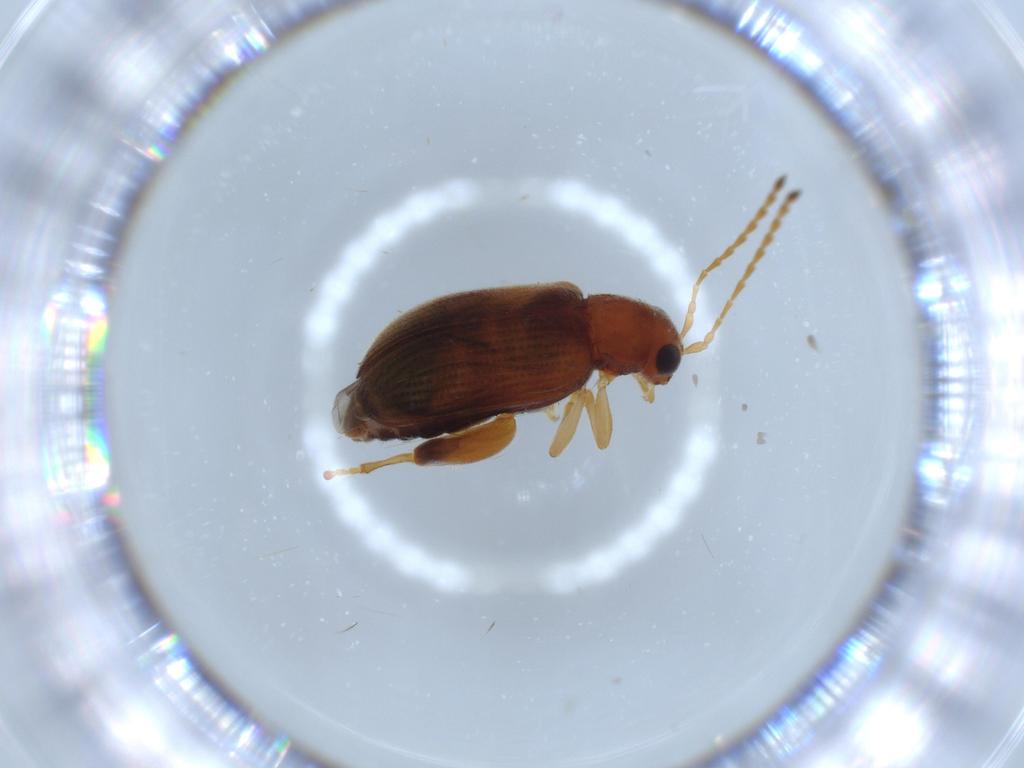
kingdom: Animalia
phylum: Arthropoda
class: Insecta
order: Coleoptera
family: Chrysomelidae
